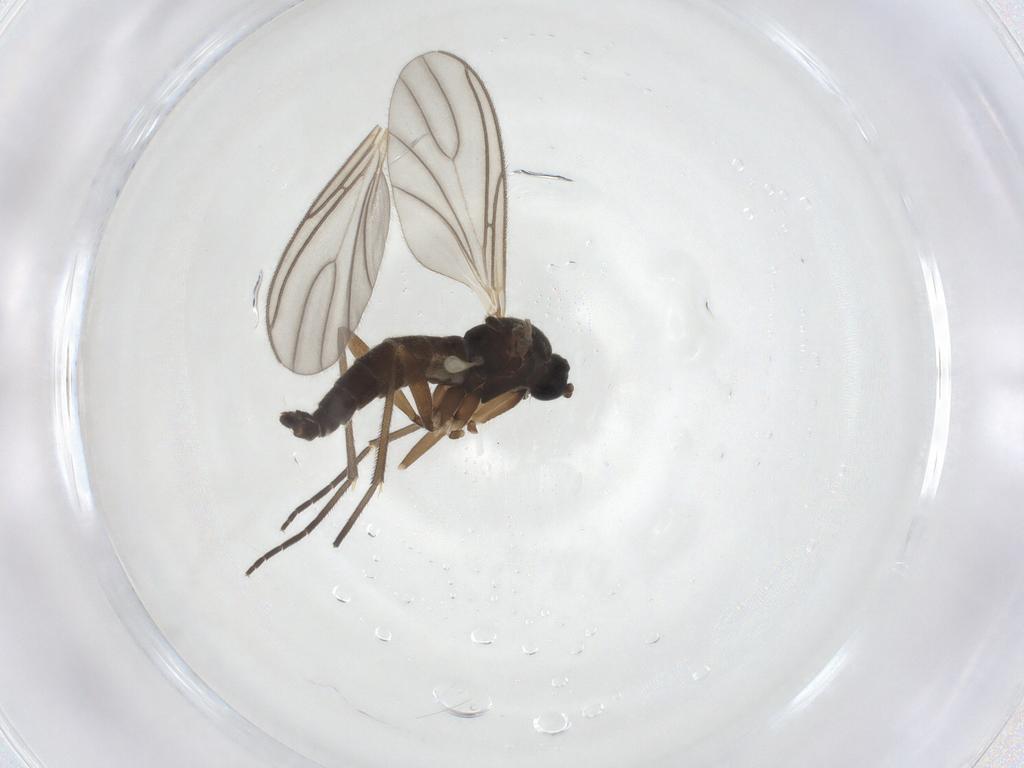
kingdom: Animalia
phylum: Arthropoda
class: Insecta
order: Diptera
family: Sciaridae
